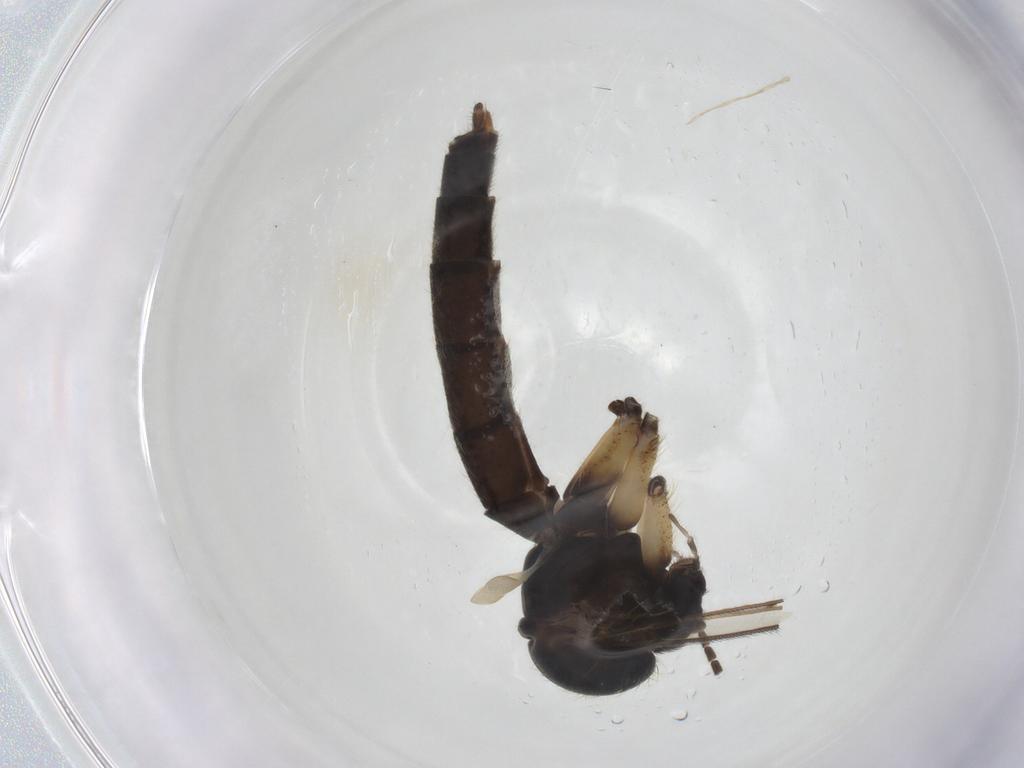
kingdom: Animalia
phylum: Arthropoda
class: Insecta
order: Diptera
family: Mycetophilidae
